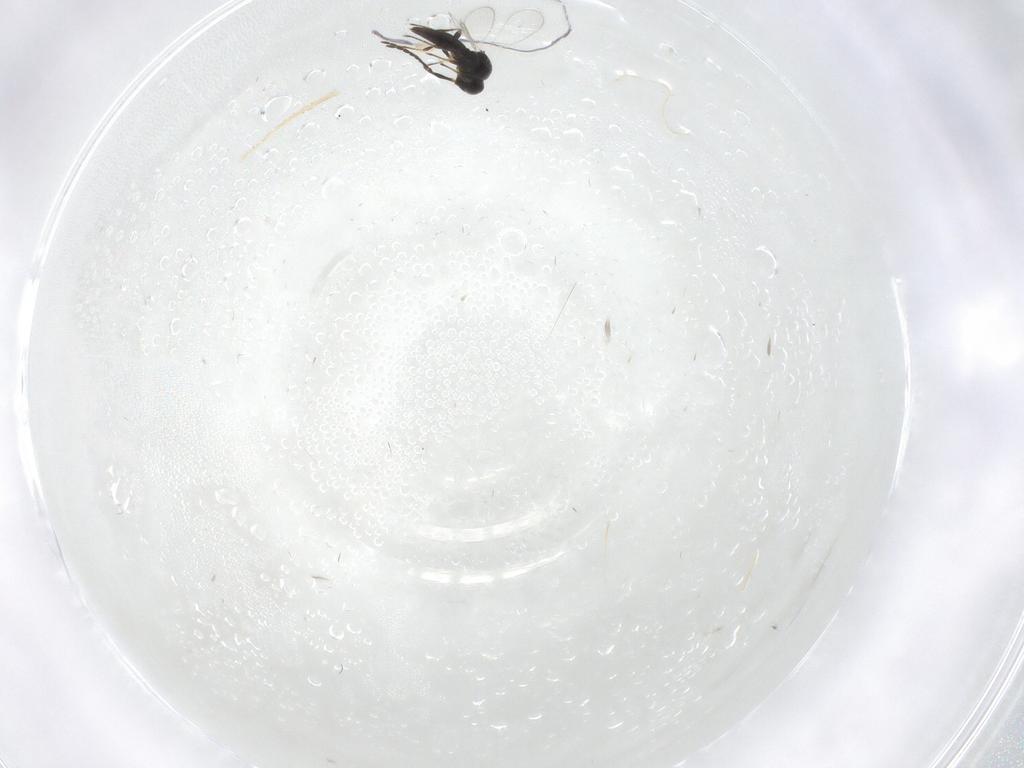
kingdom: Animalia
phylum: Arthropoda
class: Insecta
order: Hymenoptera
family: Platygastridae
